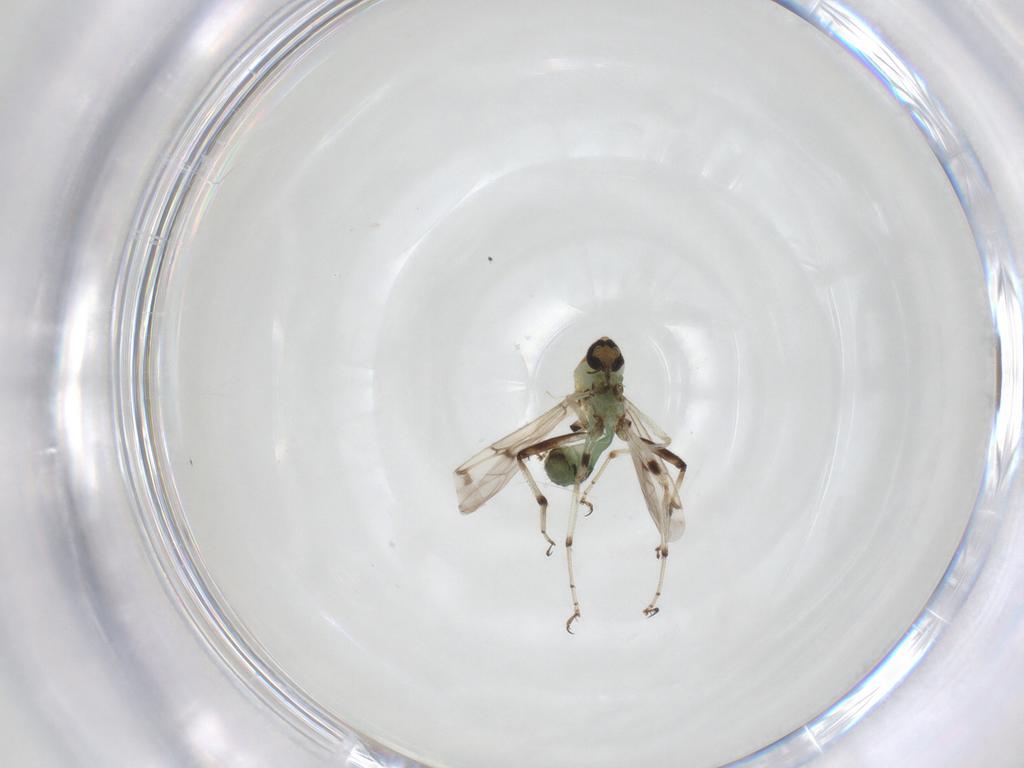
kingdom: Animalia
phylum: Arthropoda
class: Insecta
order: Diptera
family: Ceratopogonidae
